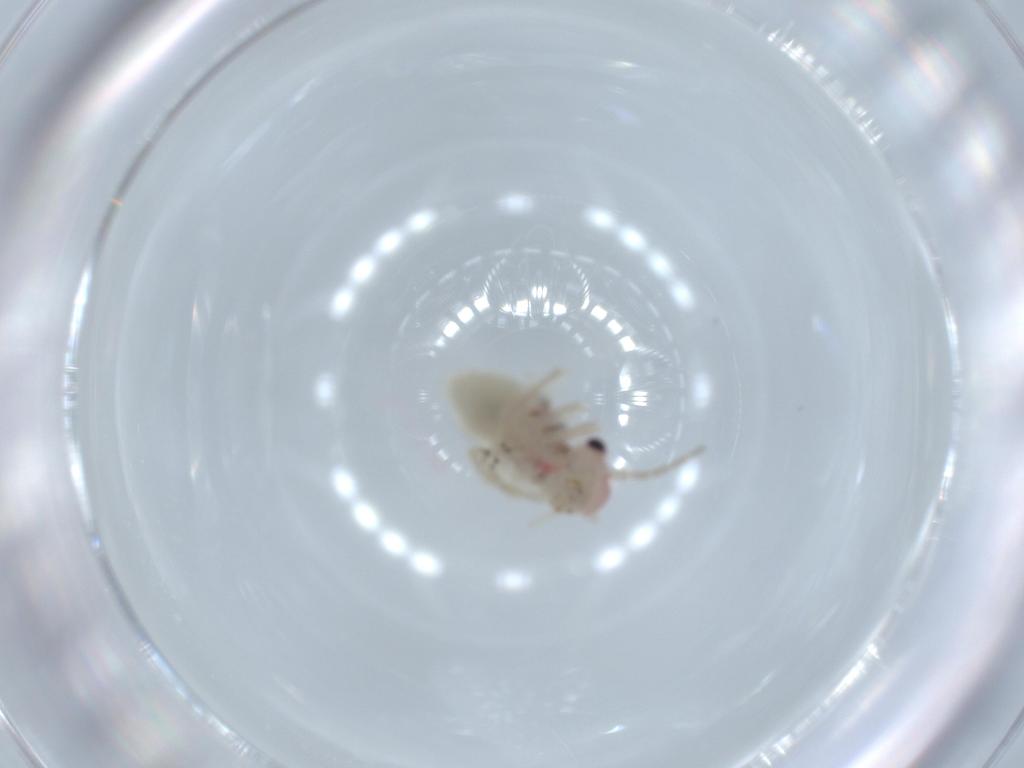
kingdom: Animalia
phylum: Arthropoda
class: Insecta
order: Psocodea
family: Amphipsocidae
